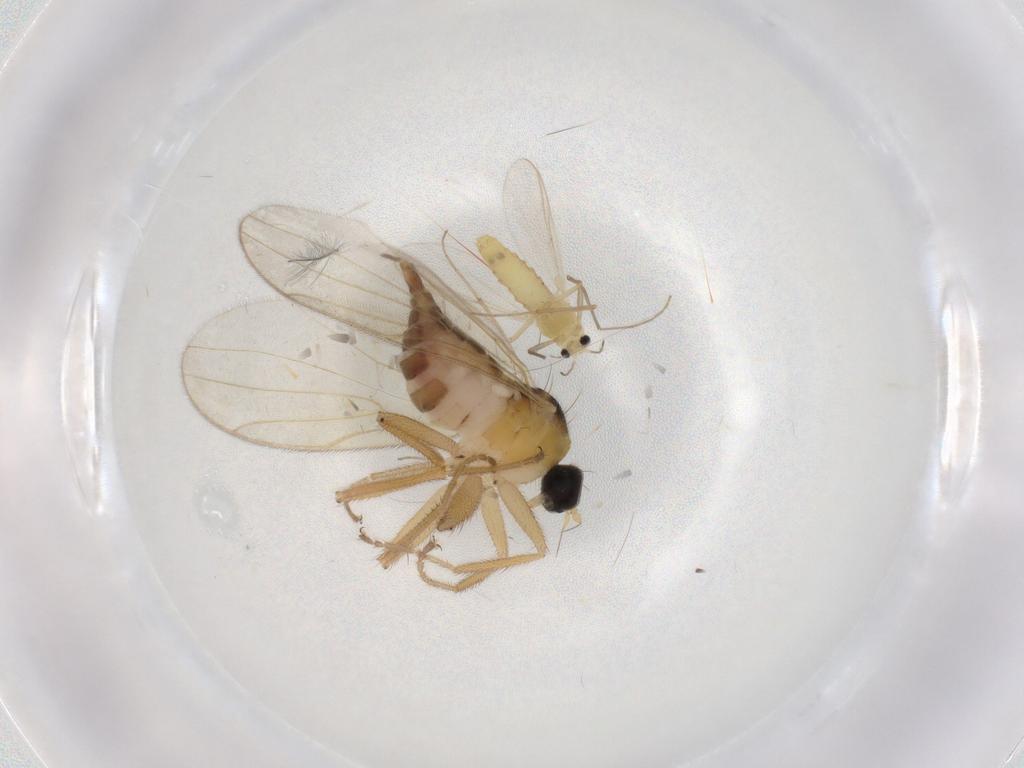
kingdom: Animalia
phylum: Arthropoda
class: Insecta
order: Diptera
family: Chironomidae
